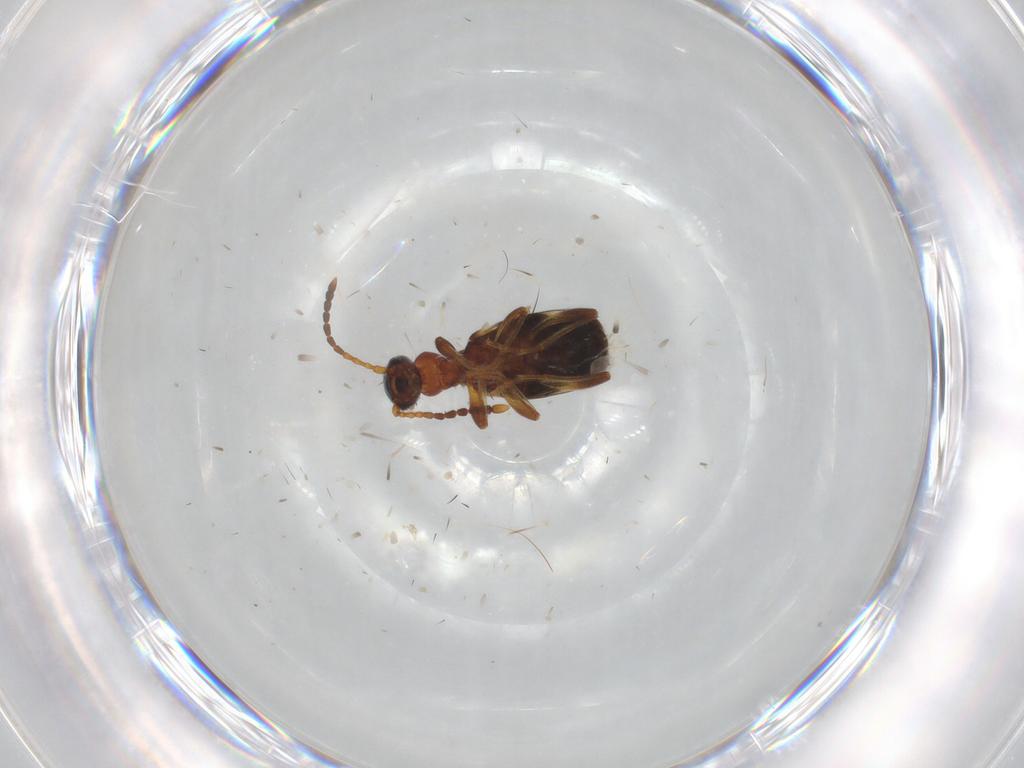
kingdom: Animalia
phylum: Arthropoda
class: Insecta
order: Coleoptera
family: Anthicidae
